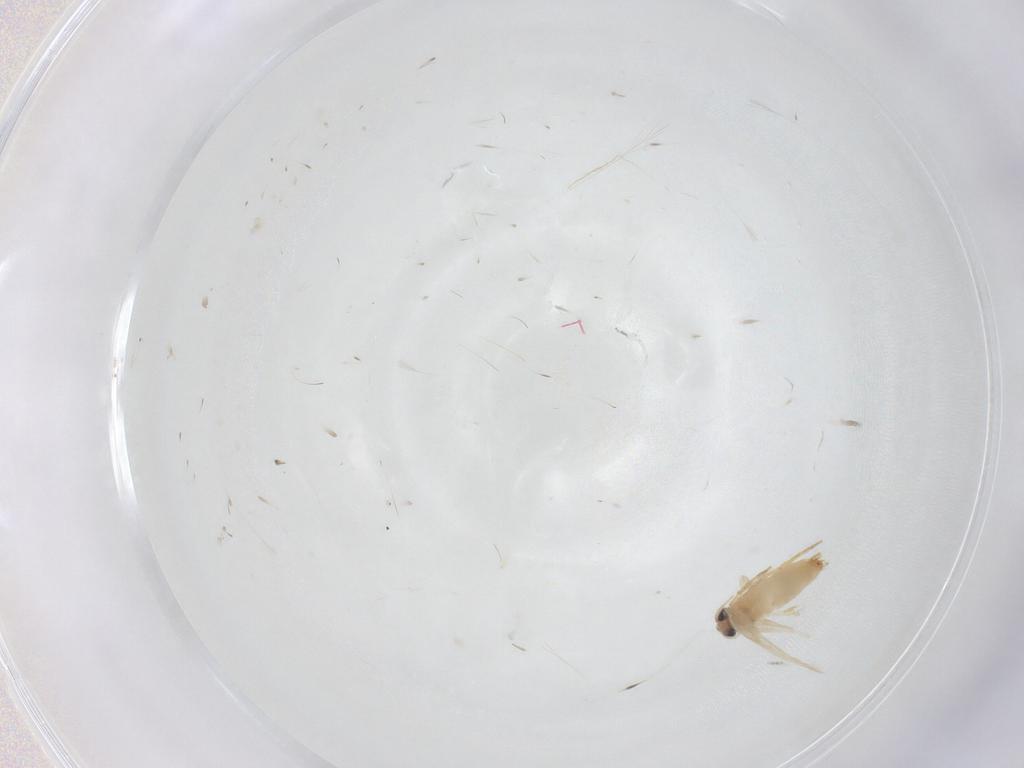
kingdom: Animalia
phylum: Arthropoda
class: Insecta
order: Lepidoptera
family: Crambidae
